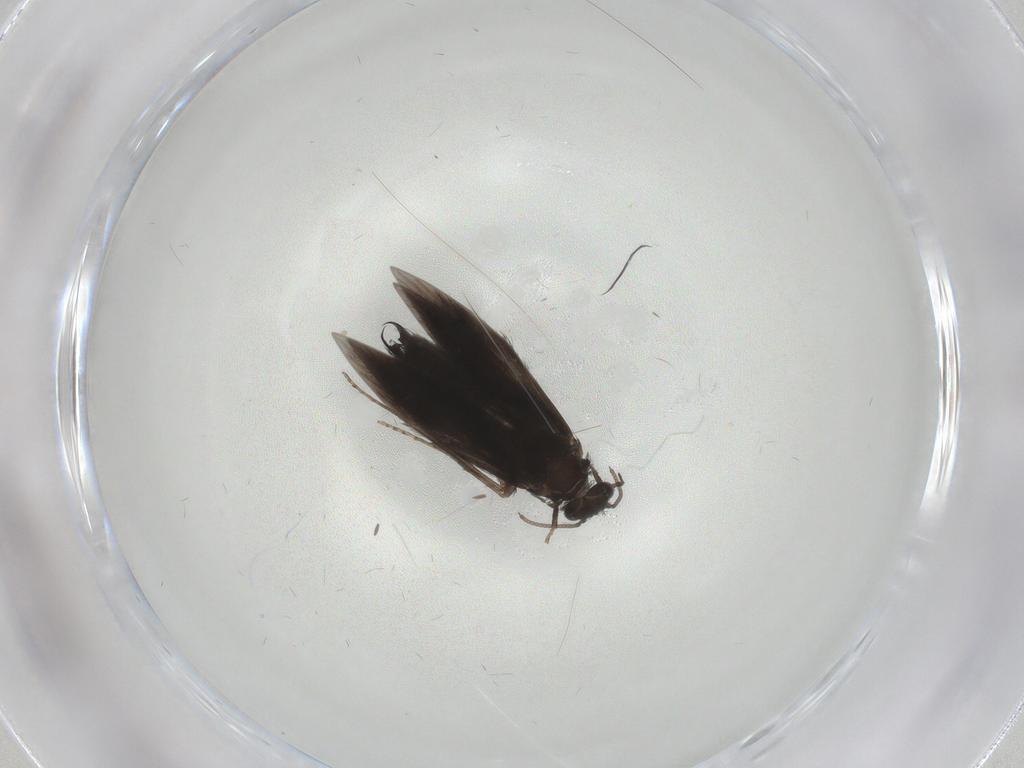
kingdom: Animalia
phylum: Arthropoda
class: Insecta
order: Trichoptera
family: Hydroptilidae
